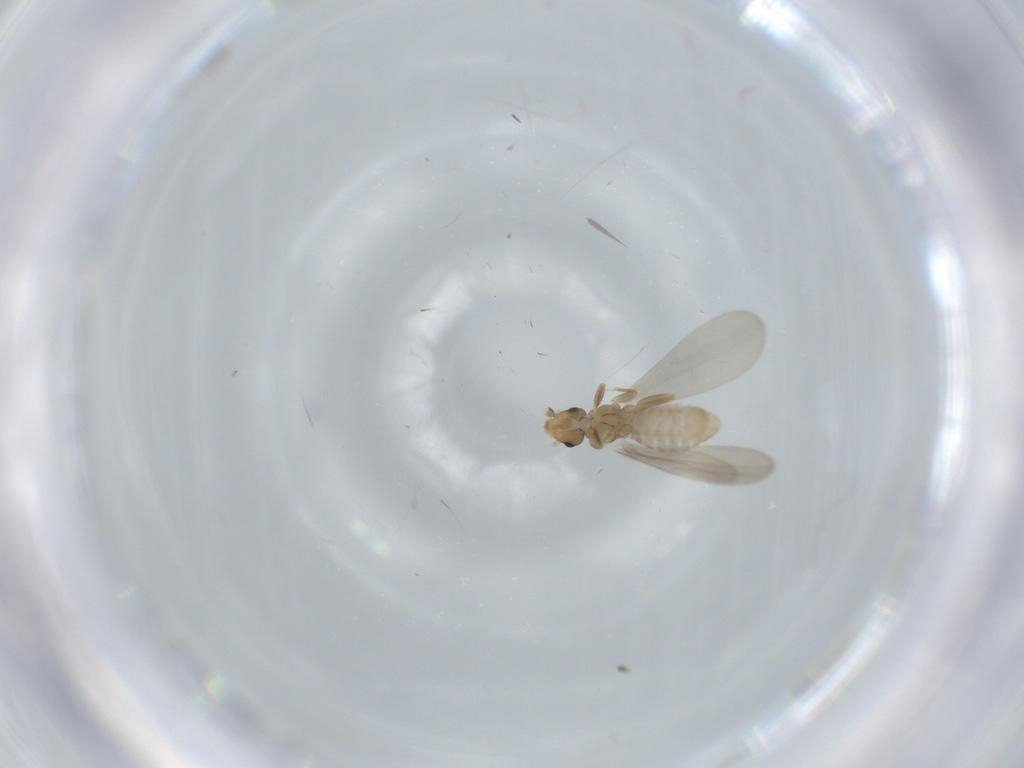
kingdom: Animalia
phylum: Arthropoda
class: Insecta
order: Psocodea
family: Liposcelididae
